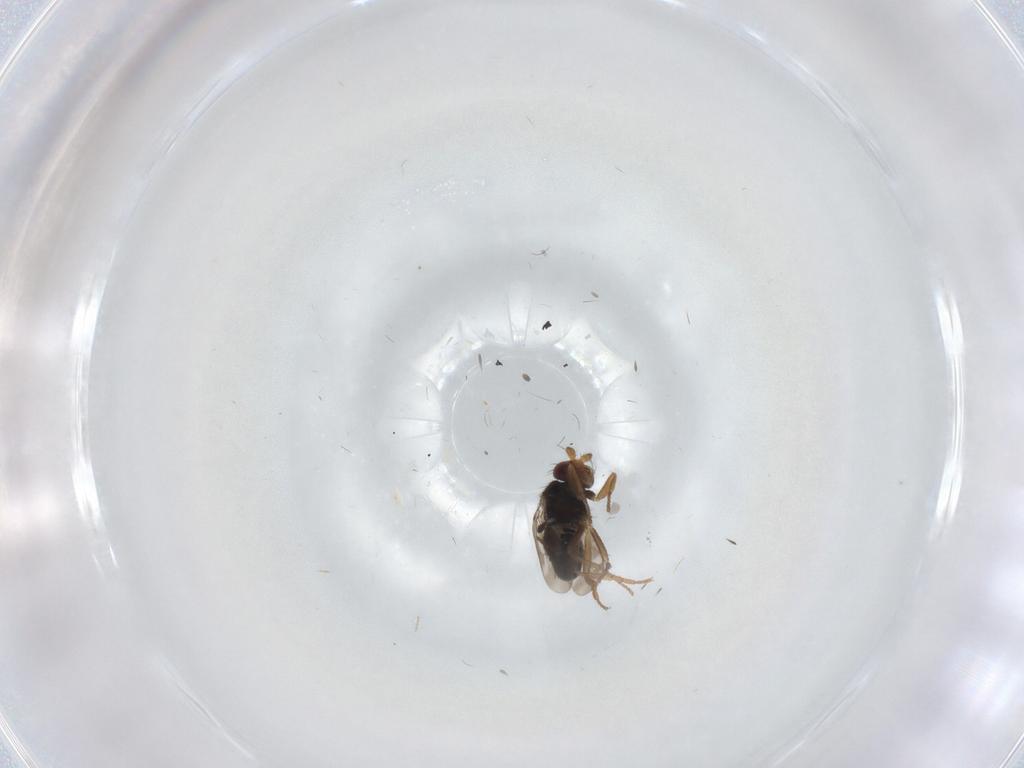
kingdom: Animalia
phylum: Arthropoda
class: Insecta
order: Diptera
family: Sphaeroceridae
